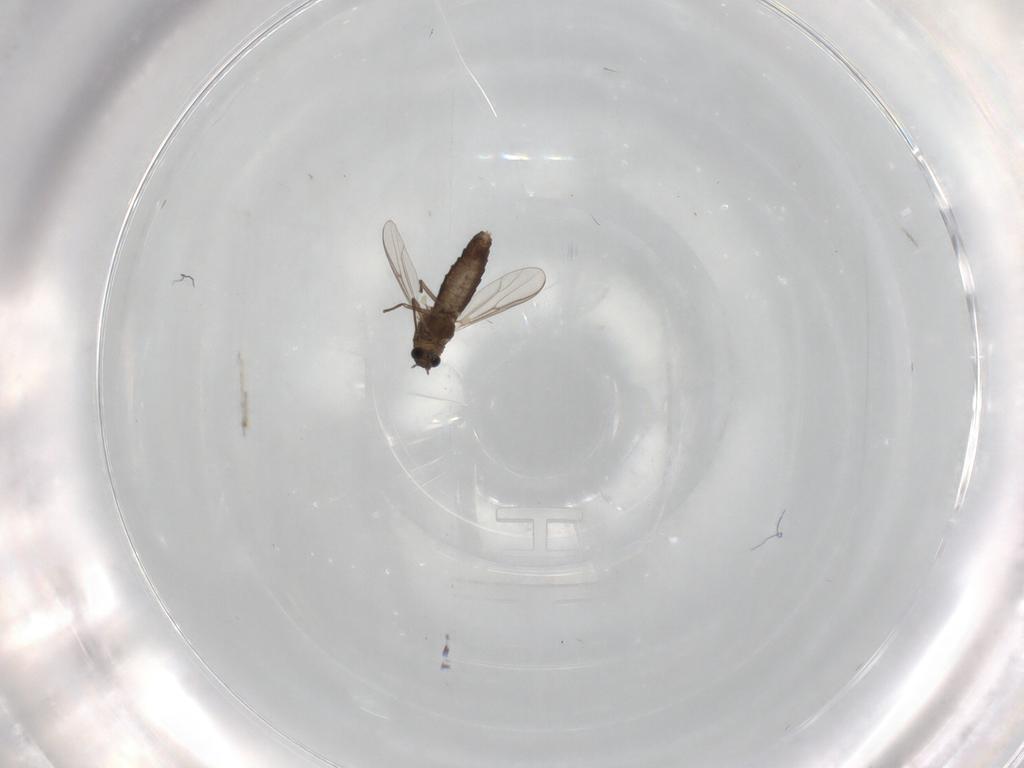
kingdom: Animalia
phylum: Arthropoda
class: Insecta
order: Diptera
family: Chironomidae
